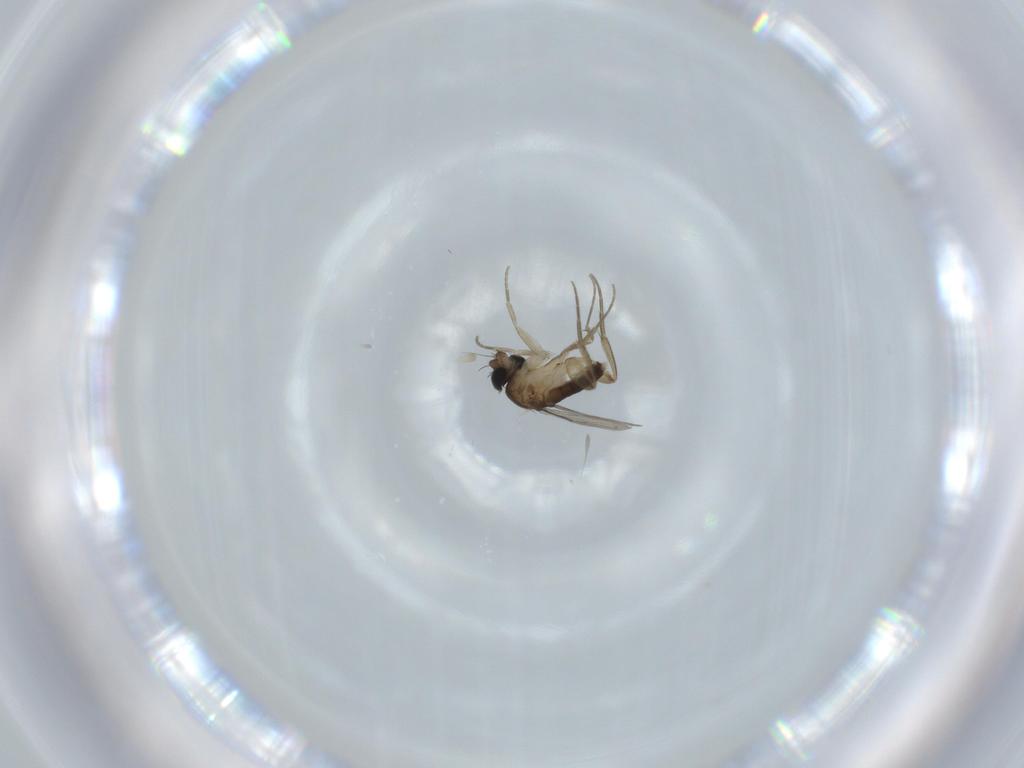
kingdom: Animalia
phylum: Arthropoda
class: Insecta
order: Diptera
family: Phoridae
